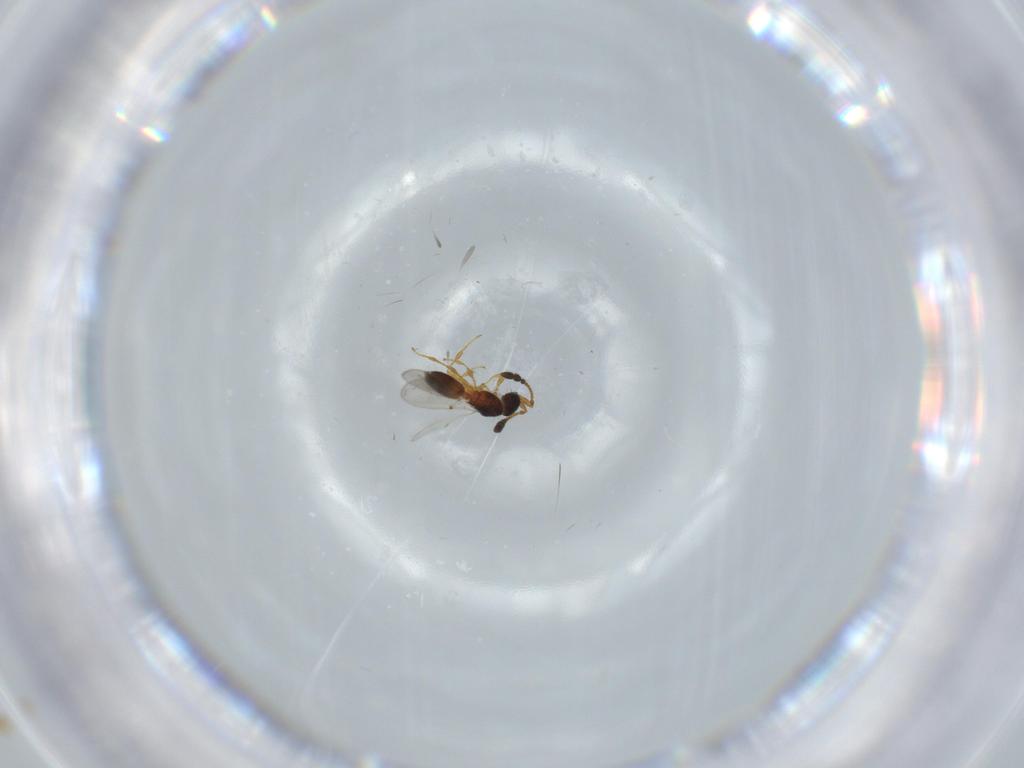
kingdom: Animalia
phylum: Arthropoda
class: Insecta
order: Hymenoptera
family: Diapriidae
